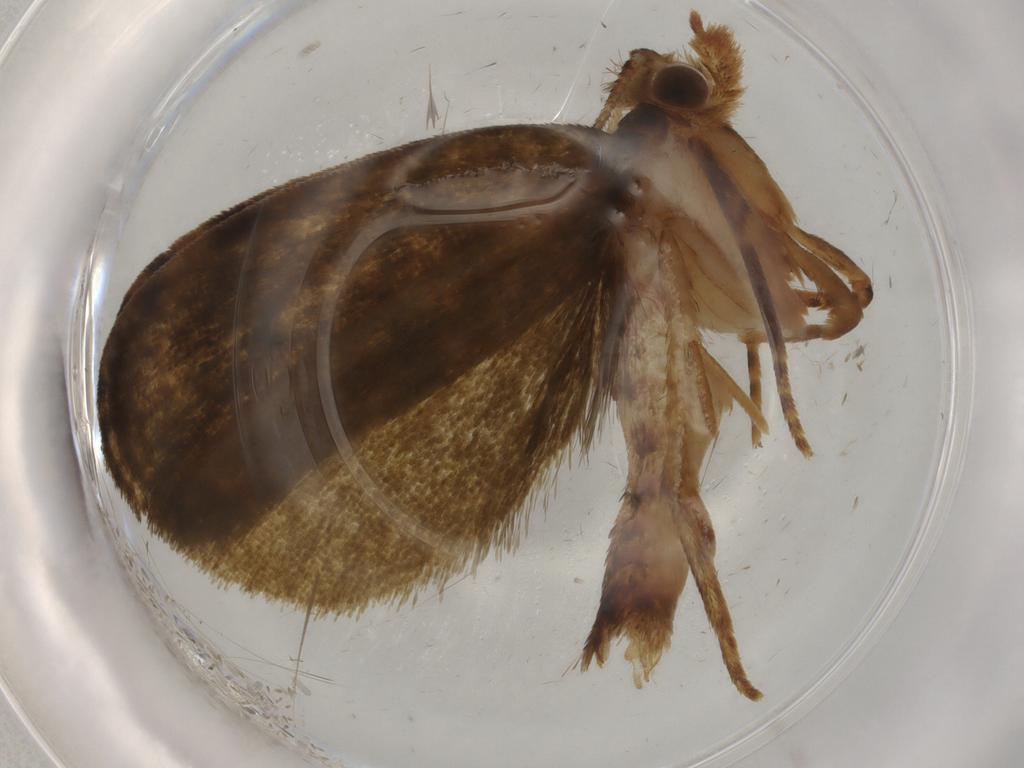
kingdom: Animalia
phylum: Arthropoda
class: Insecta
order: Lepidoptera
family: Geometridae
